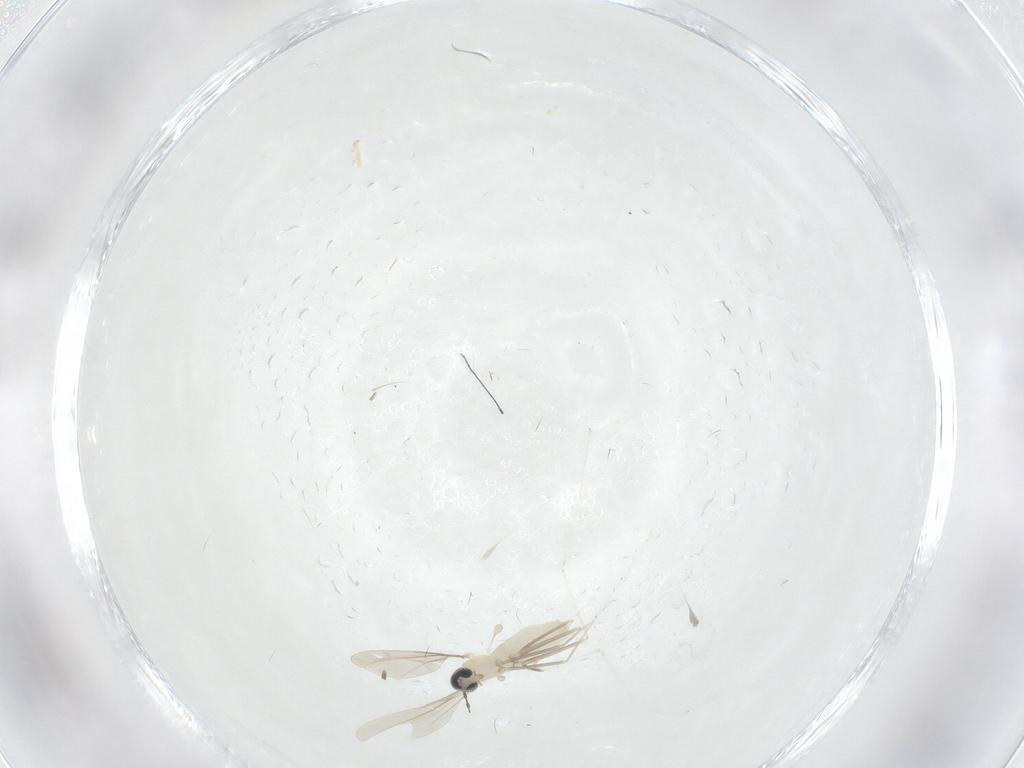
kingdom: Animalia
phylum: Arthropoda
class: Insecta
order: Diptera
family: Cecidomyiidae
